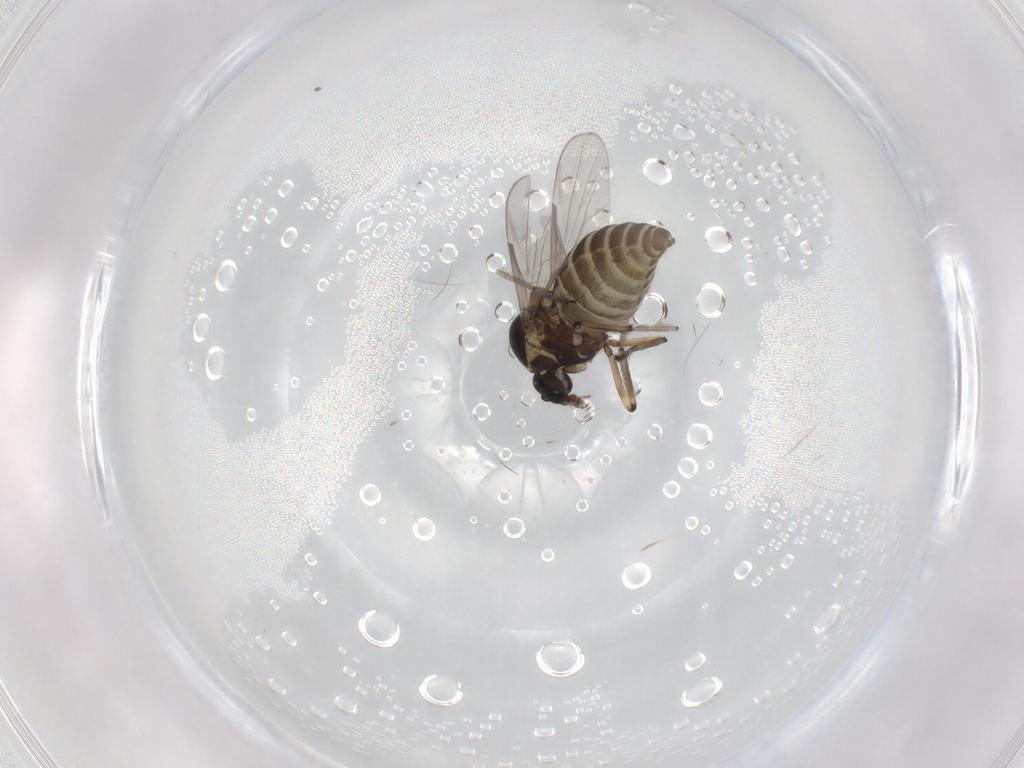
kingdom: Animalia
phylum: Arthropoda
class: Insecta
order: Diptera
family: Ceratopogonidae
